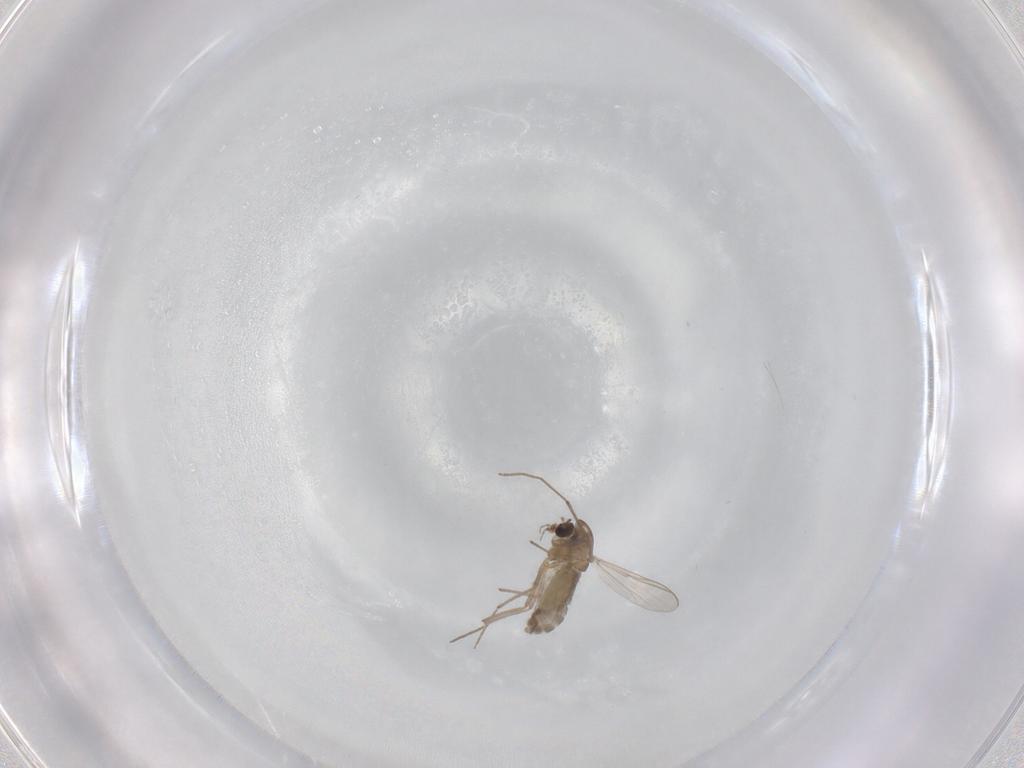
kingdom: Animalia
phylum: Arthropoda
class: Insecta
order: Diptera
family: Chironomidae
